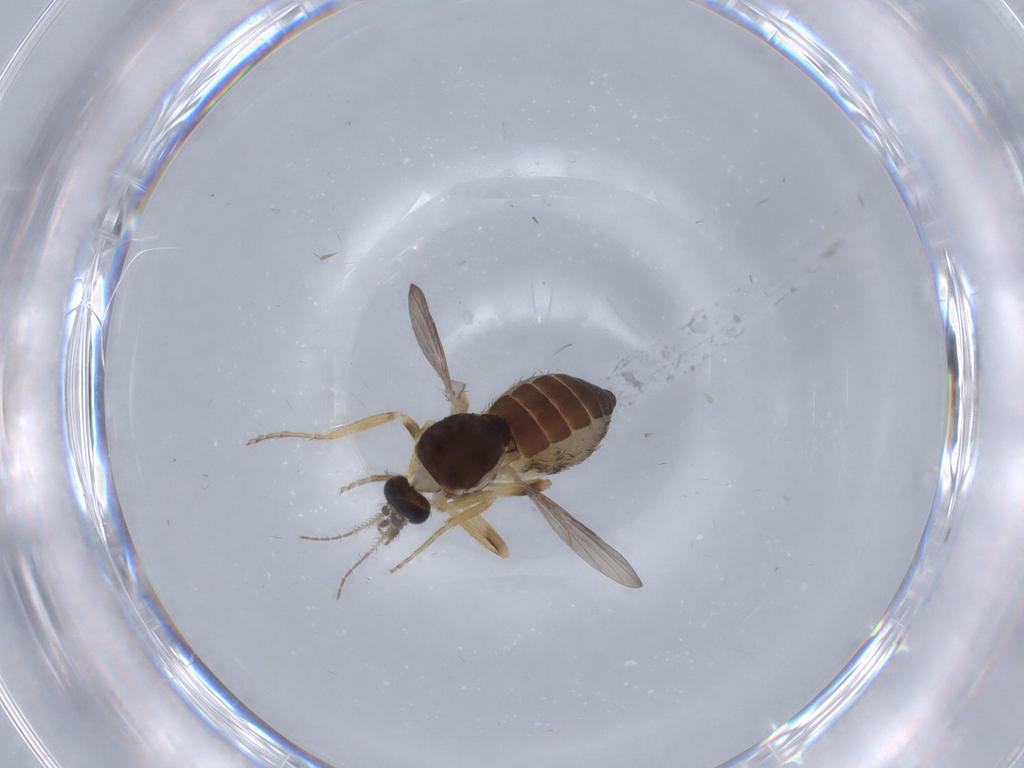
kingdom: Animalia
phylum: Arthropoda
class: Insecta
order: Diptera
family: Ceratopogonidae
